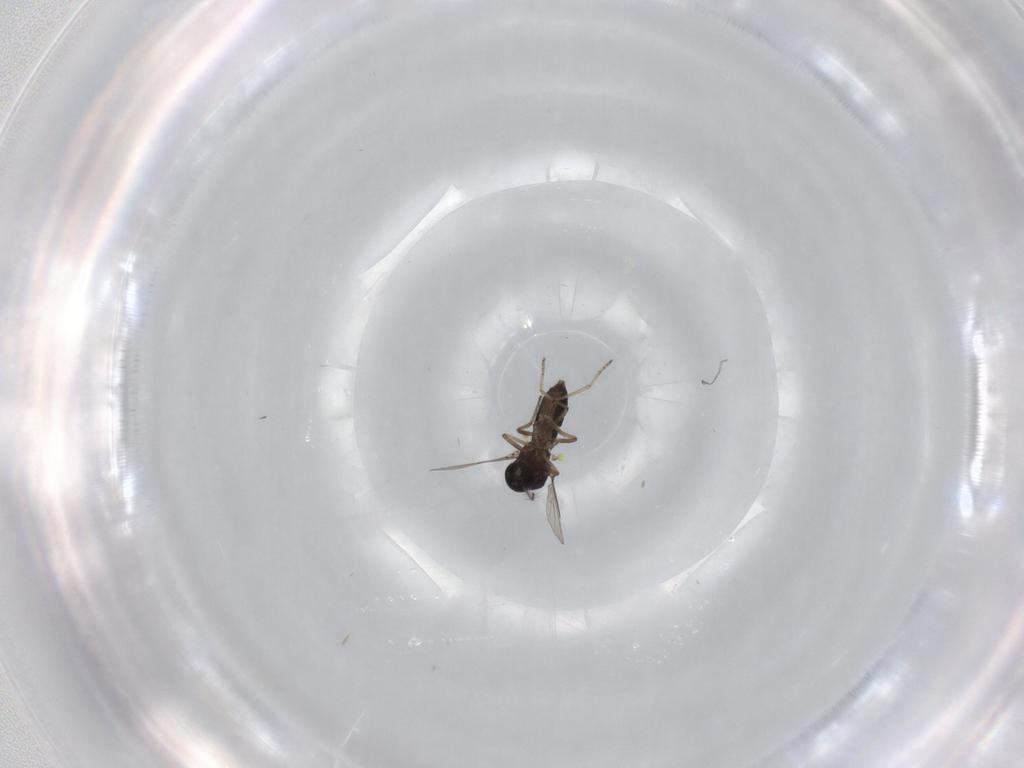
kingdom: Animalia
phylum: Arthropoda
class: Insecta
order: Diptera
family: Ceratopogonidae
